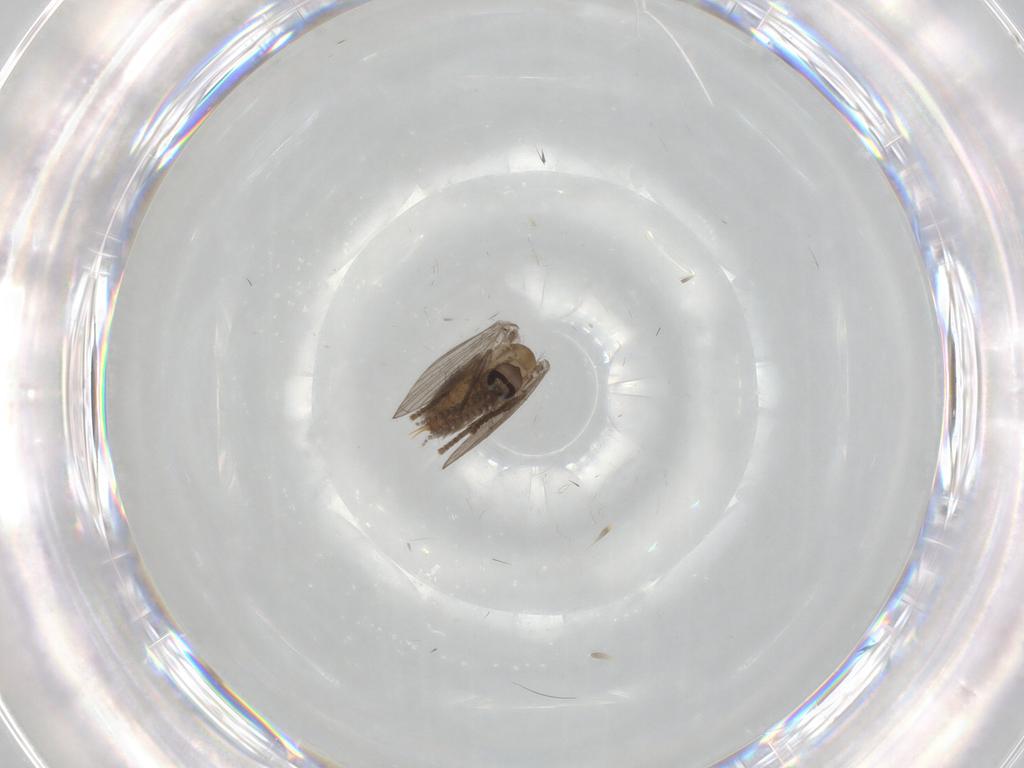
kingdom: Animalia
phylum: Arthropoda
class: Insecta
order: Diptera
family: Psychodidae
